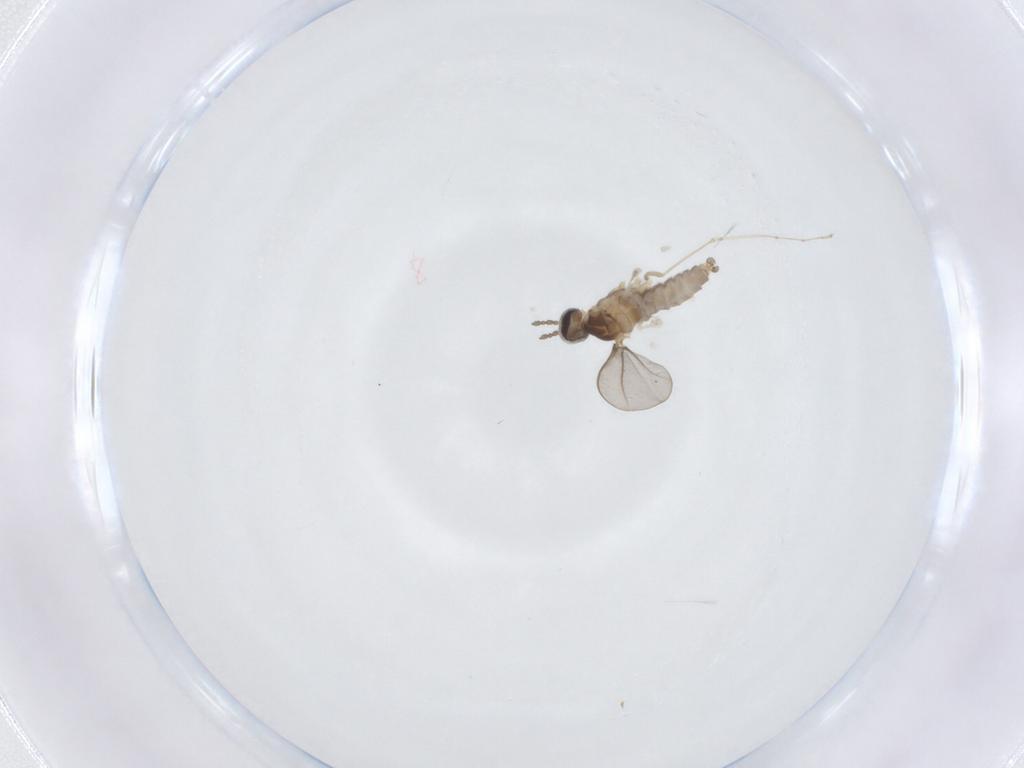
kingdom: Animalia
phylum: Arthropoda
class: Insecta
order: Diptera
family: Cecidomyiidae
